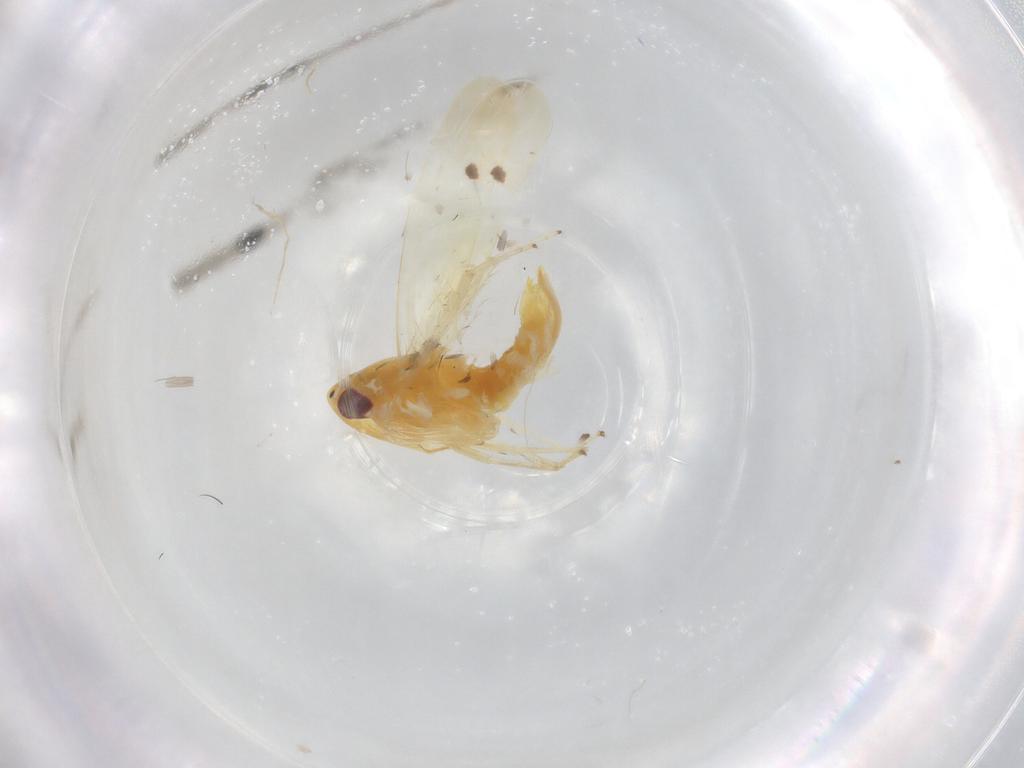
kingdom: Animalia
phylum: Arthropoda
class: Insecta
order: Hemiptera
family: Cicadellidae
